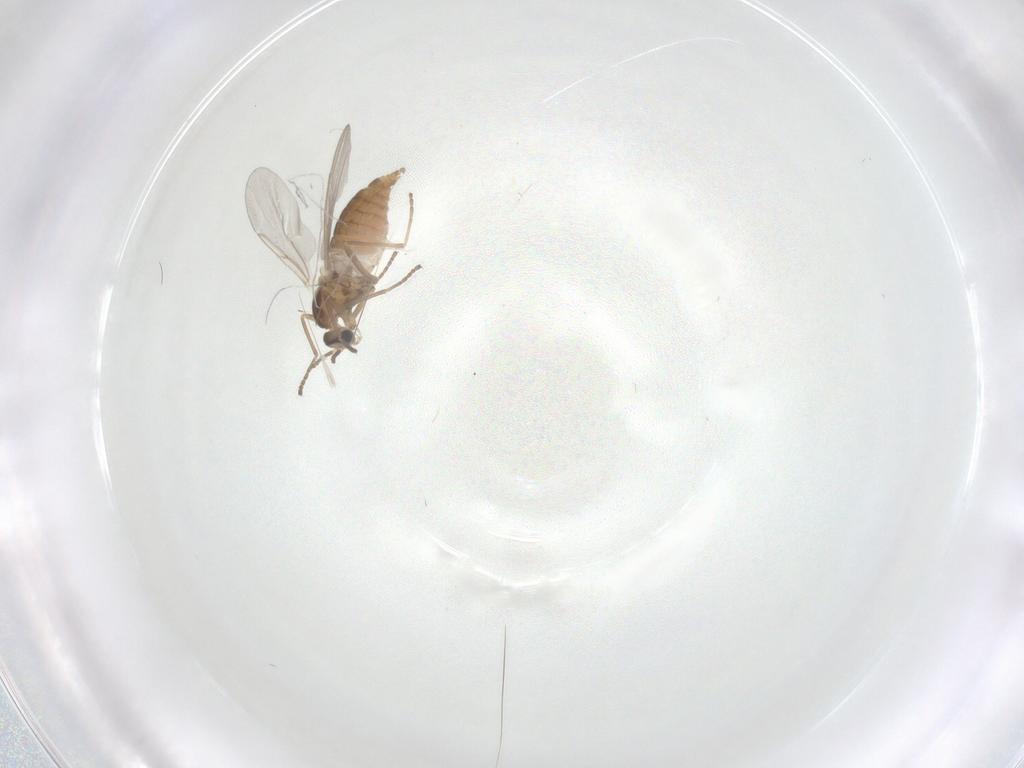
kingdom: Animalia
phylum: Arthropoda
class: Insecta
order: Diptera
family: Cecidomyiidae
